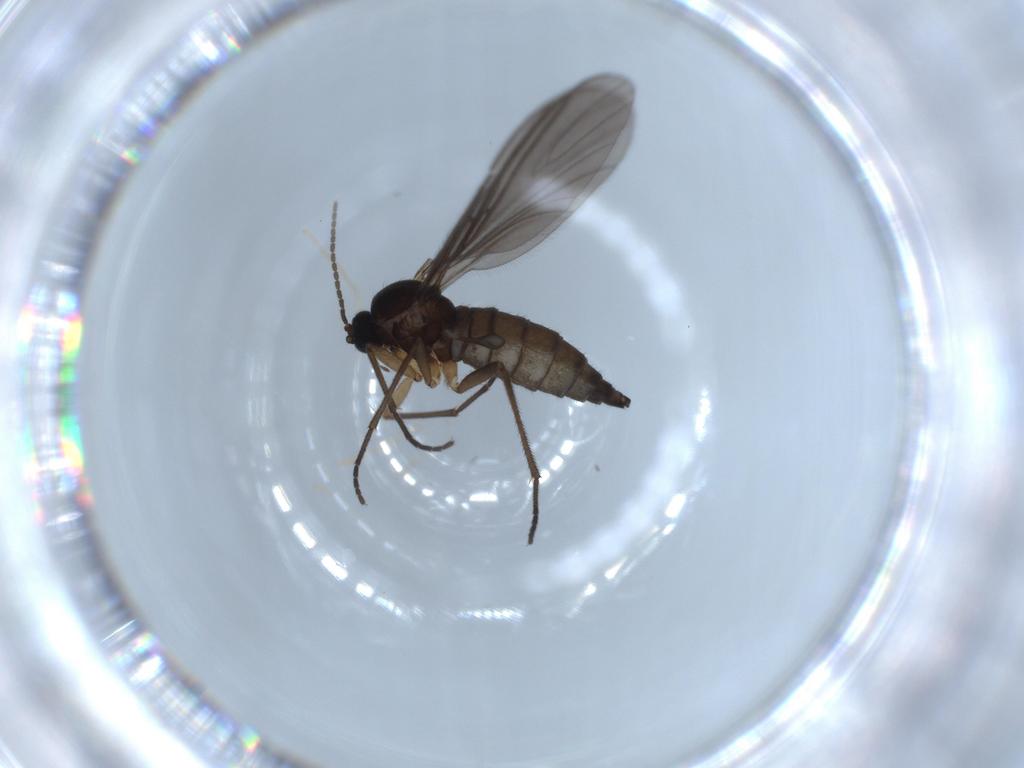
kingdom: Animalia
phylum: Arthropoda
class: Insecta
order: Diptera
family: Sciaridae
